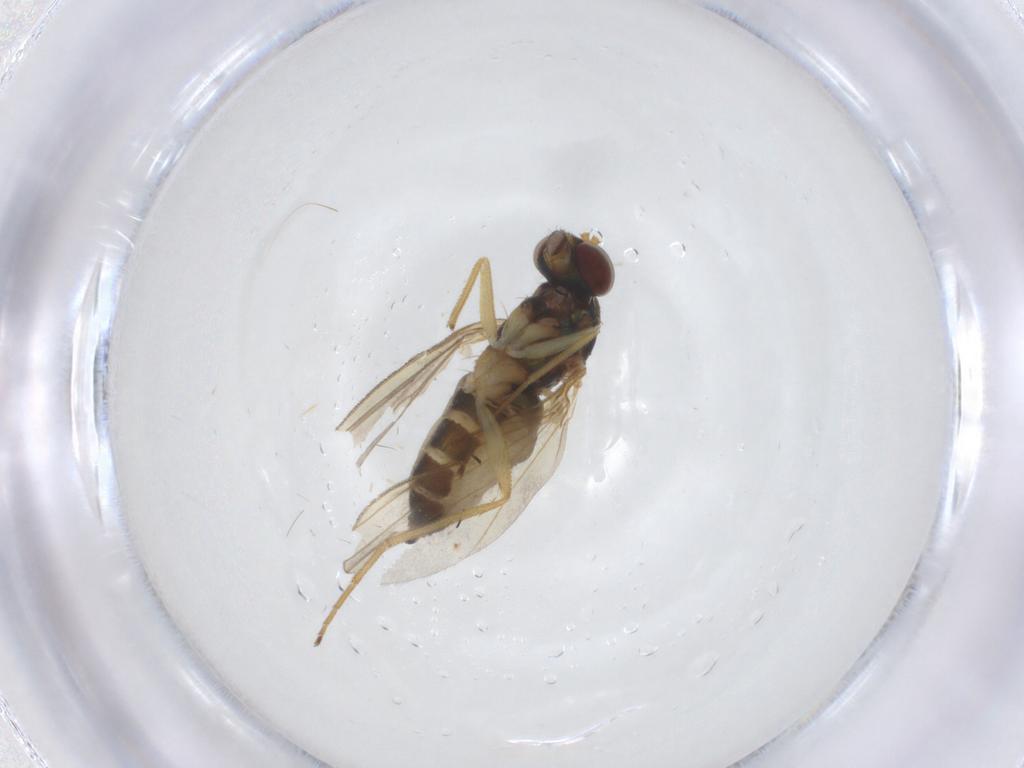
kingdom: Animalia
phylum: Arthropoda
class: Insecta
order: Diptera
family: Dolichopodidae
